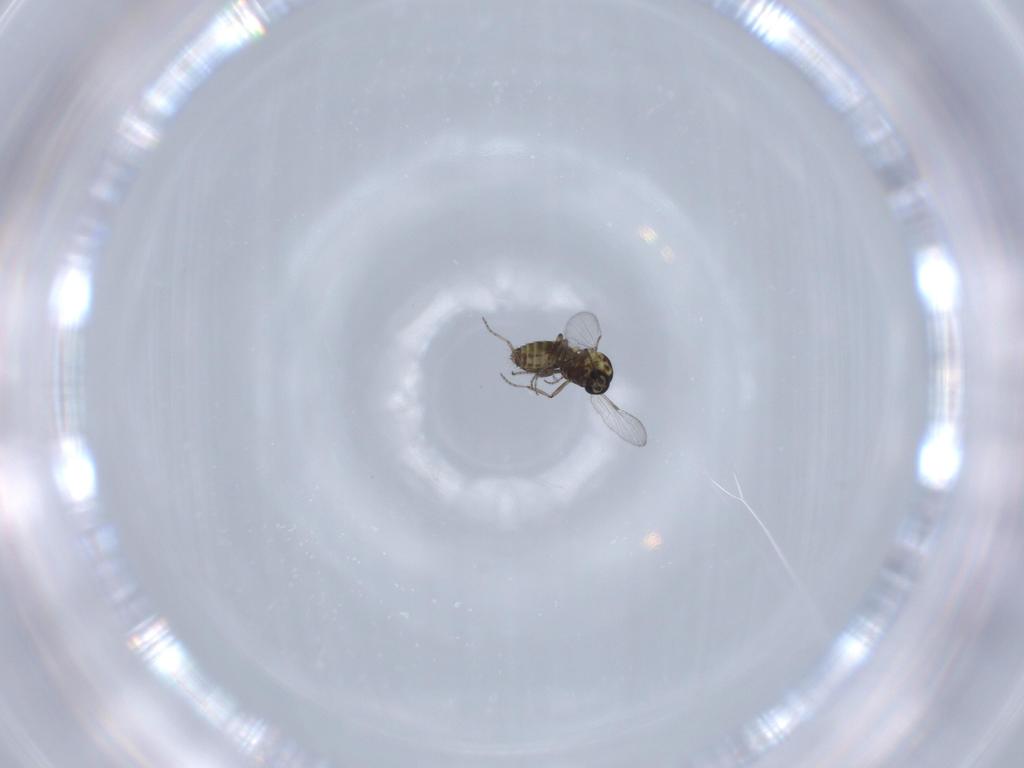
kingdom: Animalia
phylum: Arthropoda
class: Insecta
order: Diptera
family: Ceratopogonidae
